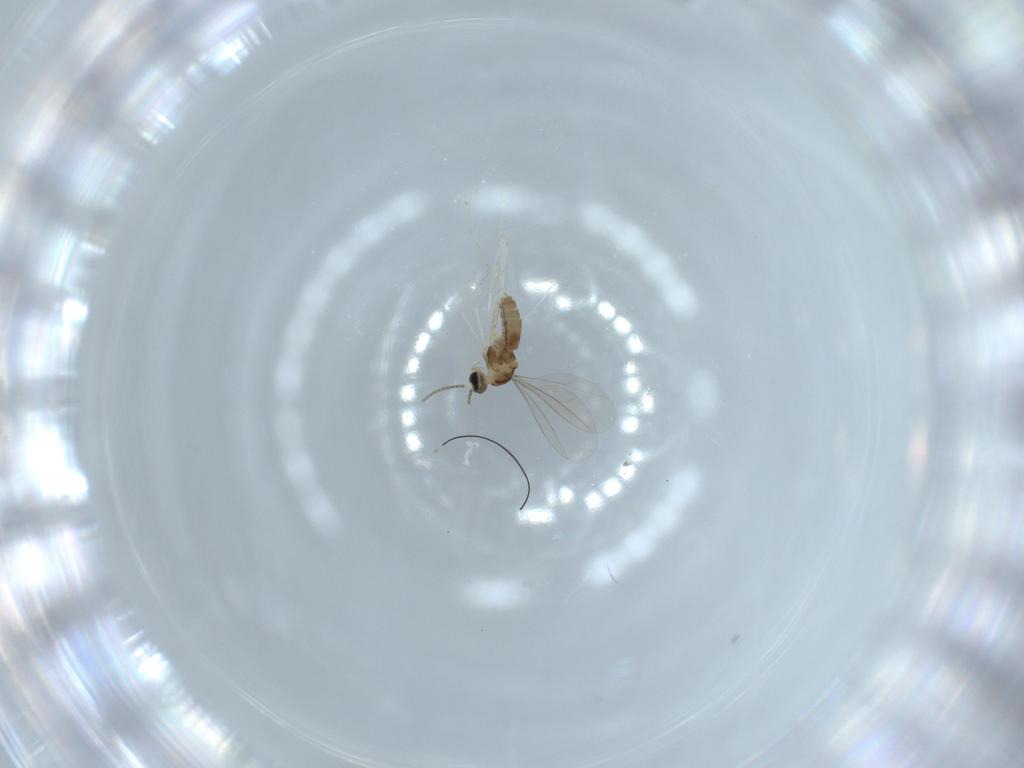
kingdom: Animalia
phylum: Arthropoda
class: Insecta
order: Diptera
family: Cecidomyiidae
